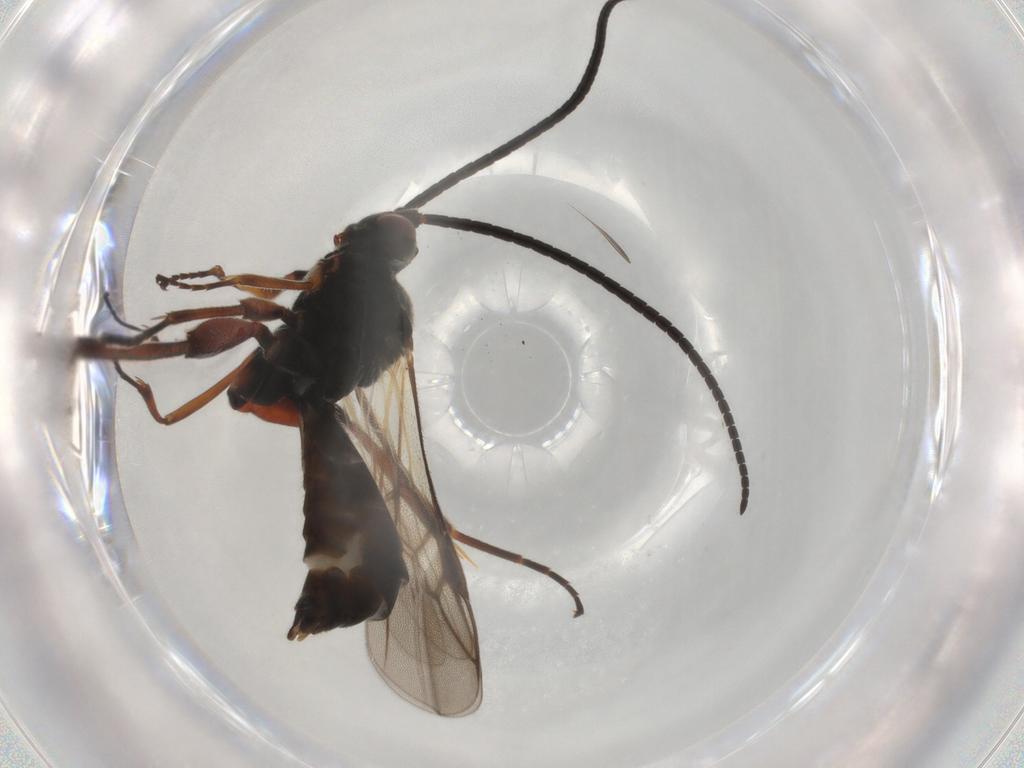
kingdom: Animalia
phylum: Arthropoda
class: Insecta
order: Hymenoptera
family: Braconidae
